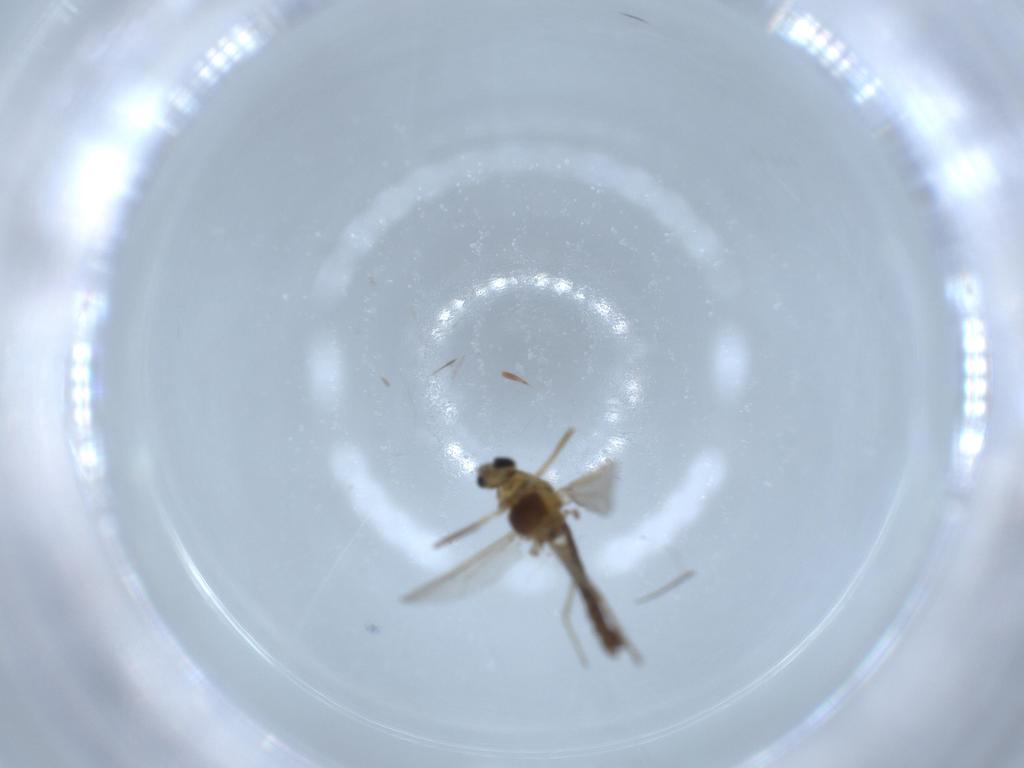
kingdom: Animalia
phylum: Arthropoda
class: Insecta
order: Diptera
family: Chironomidae
